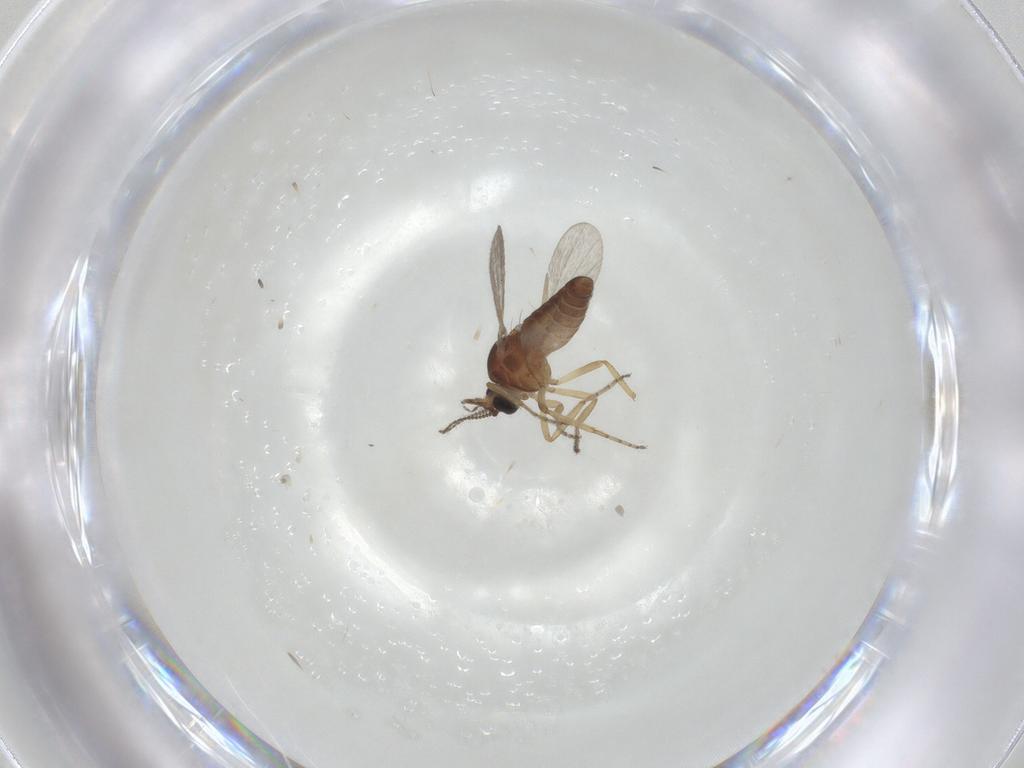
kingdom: Animalia
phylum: Arthropoda
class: Insecta
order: Diptera
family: Ceratopogonidae
